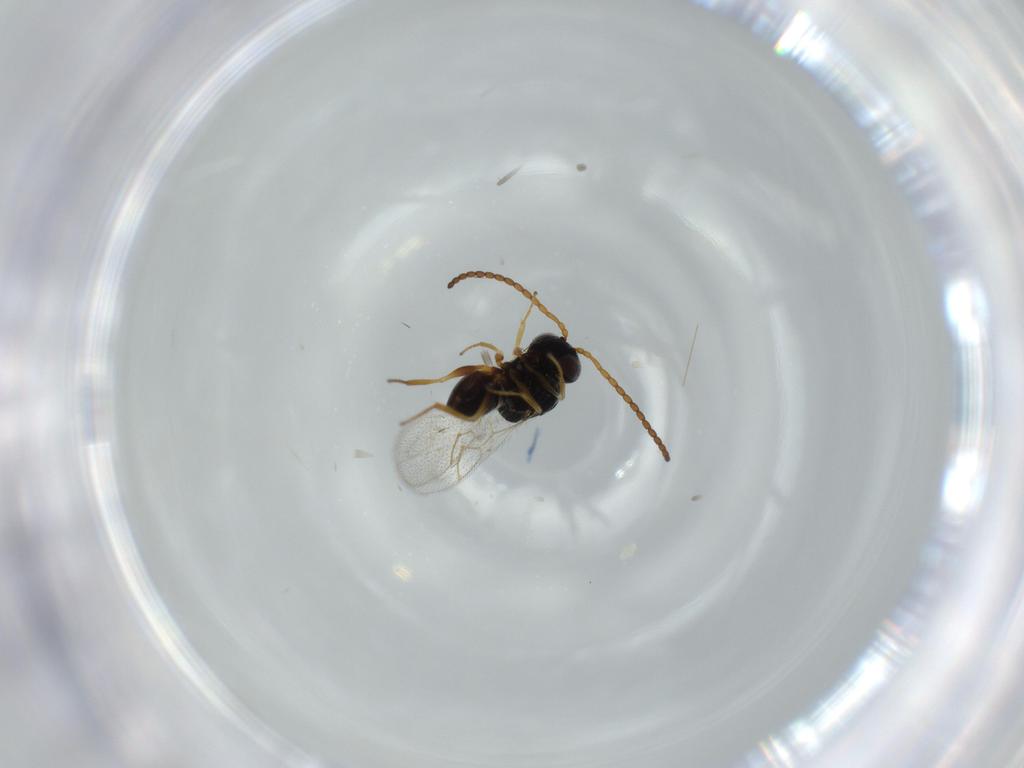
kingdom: Animalia
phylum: Arthropoda
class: Insecta
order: Hymenoptera
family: Figitidae
